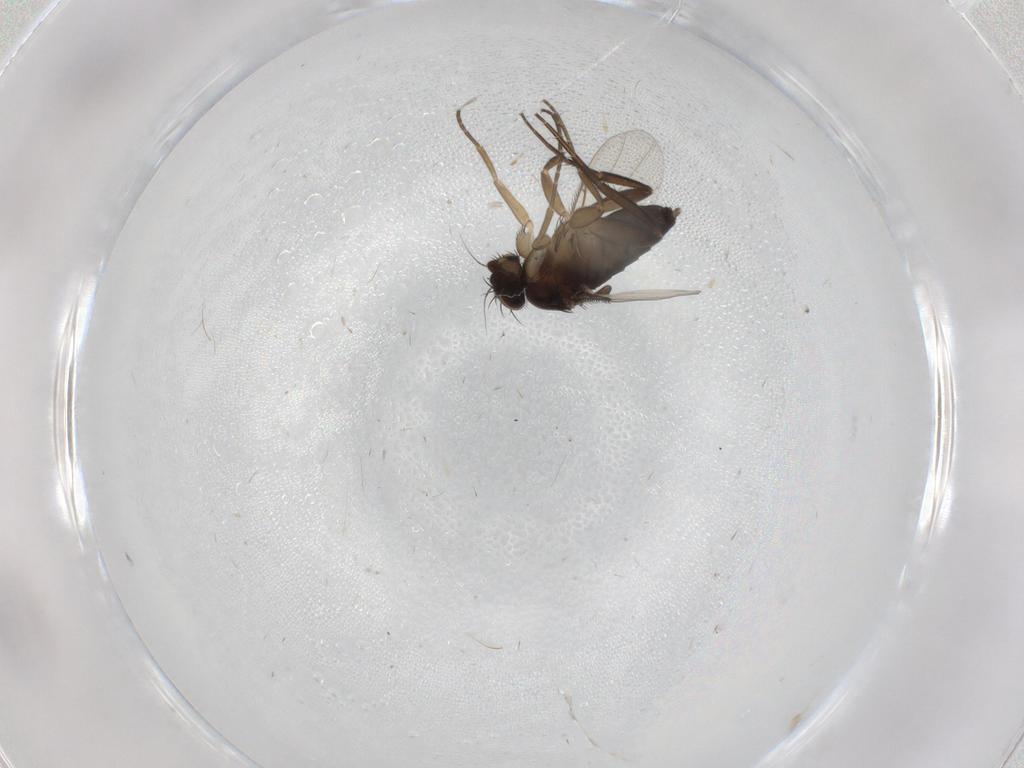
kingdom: Animalia
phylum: Arthropoda
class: Insecta
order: Diptera
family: Phoridae
